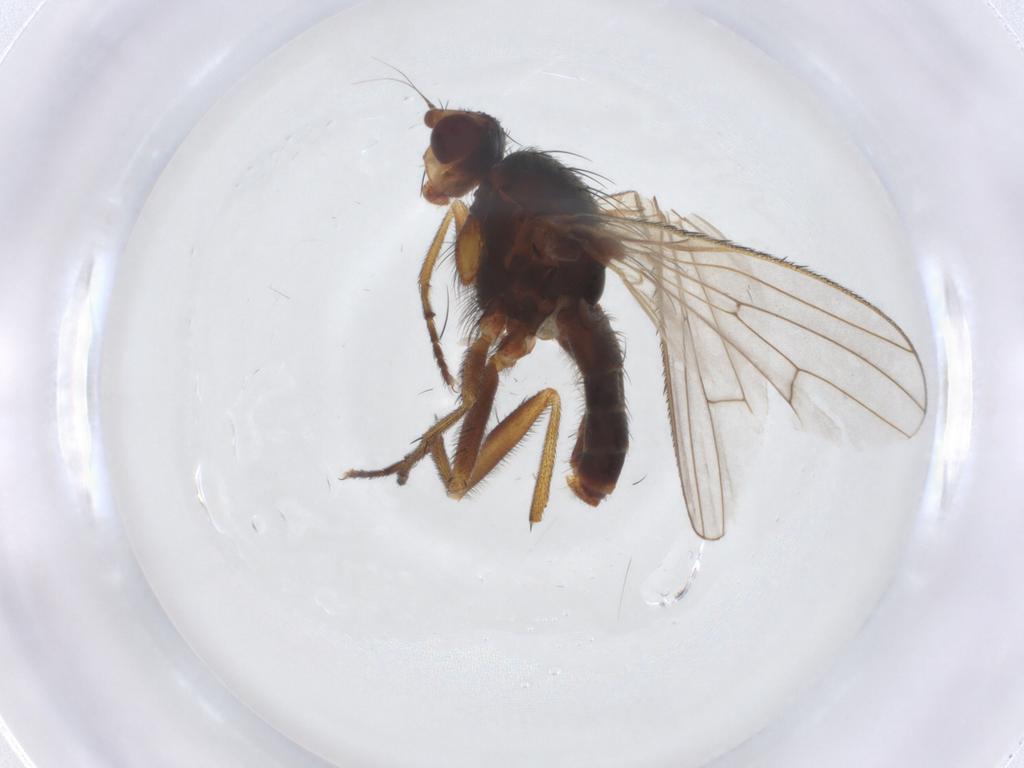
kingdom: Animalia
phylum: Arthropoda
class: Insecta
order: Diptera
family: Heleomyzidae
